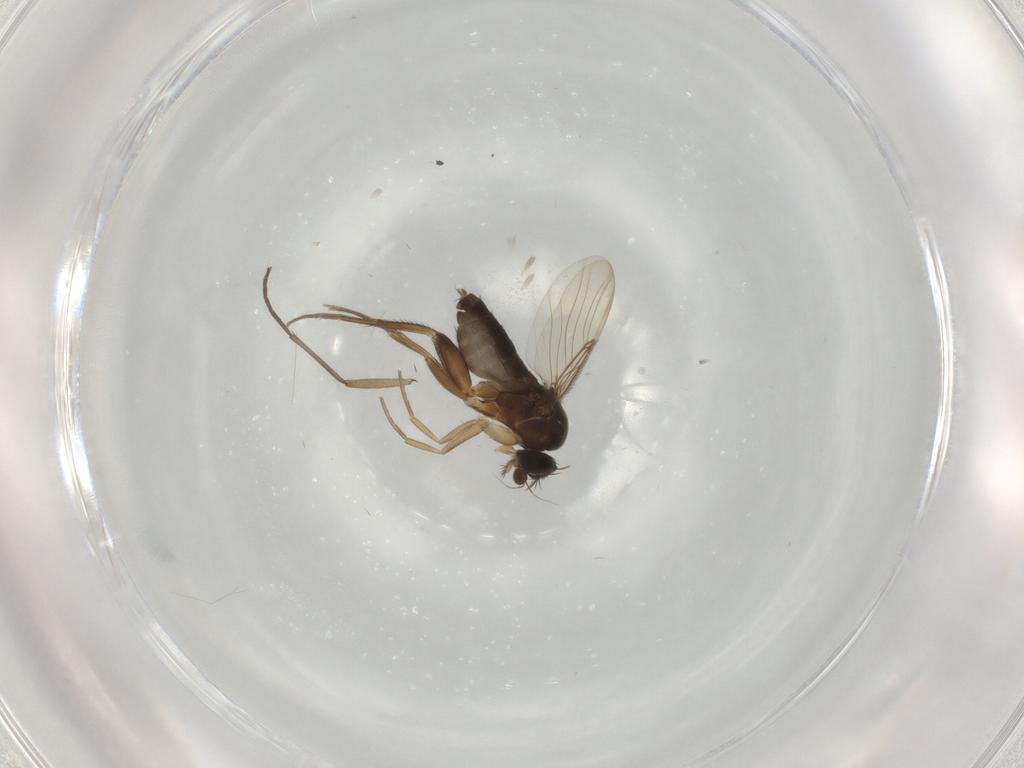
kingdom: Animalia
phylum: Arthropoda
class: Insecta
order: Diptera
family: Phoridae
